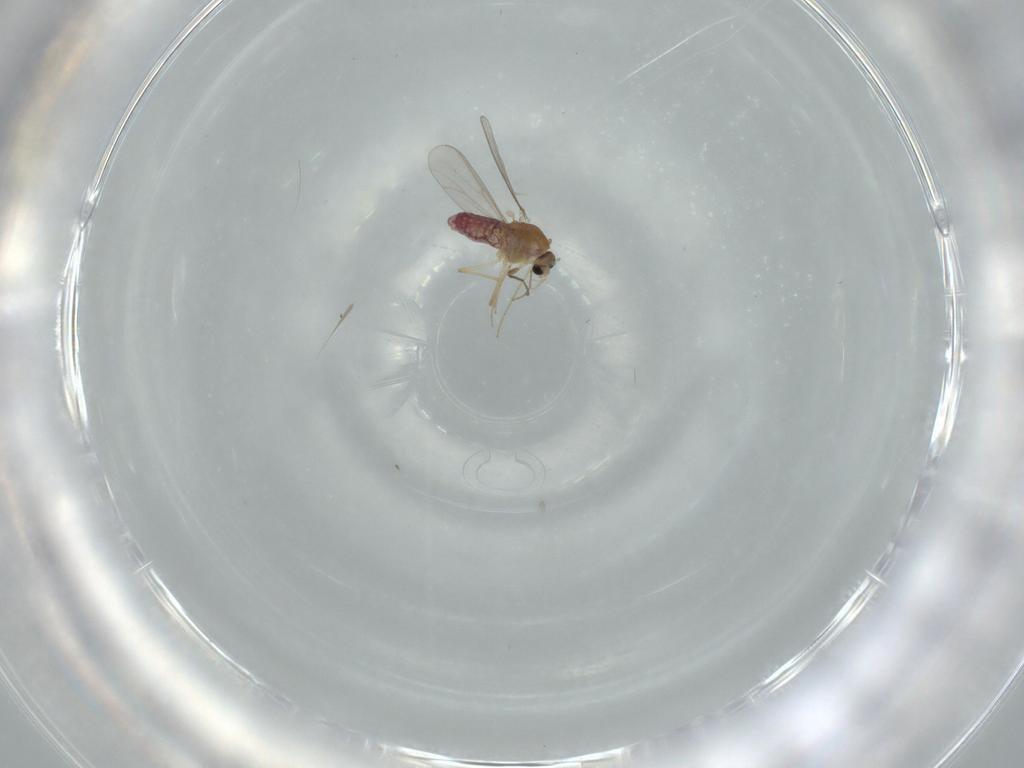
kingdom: Animalia
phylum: Arthropoda
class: Insecta
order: Diptera
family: Chironomidae
